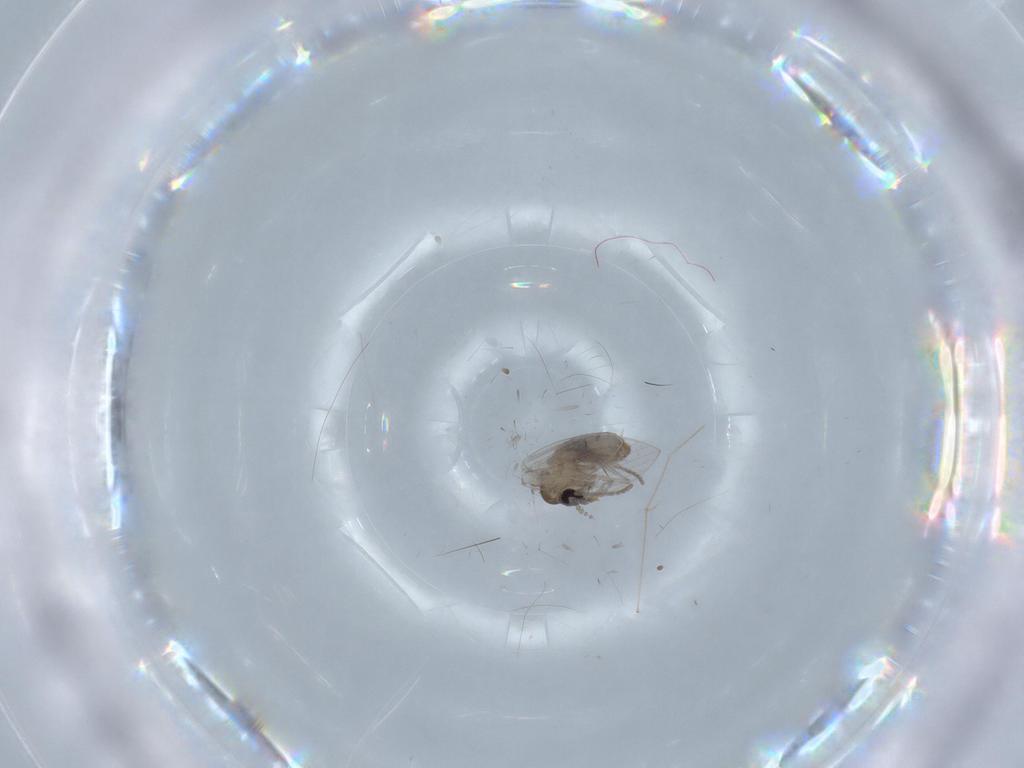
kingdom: Animalia
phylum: Arthropoda
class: Insecta
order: Diptera
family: Psychodidae
